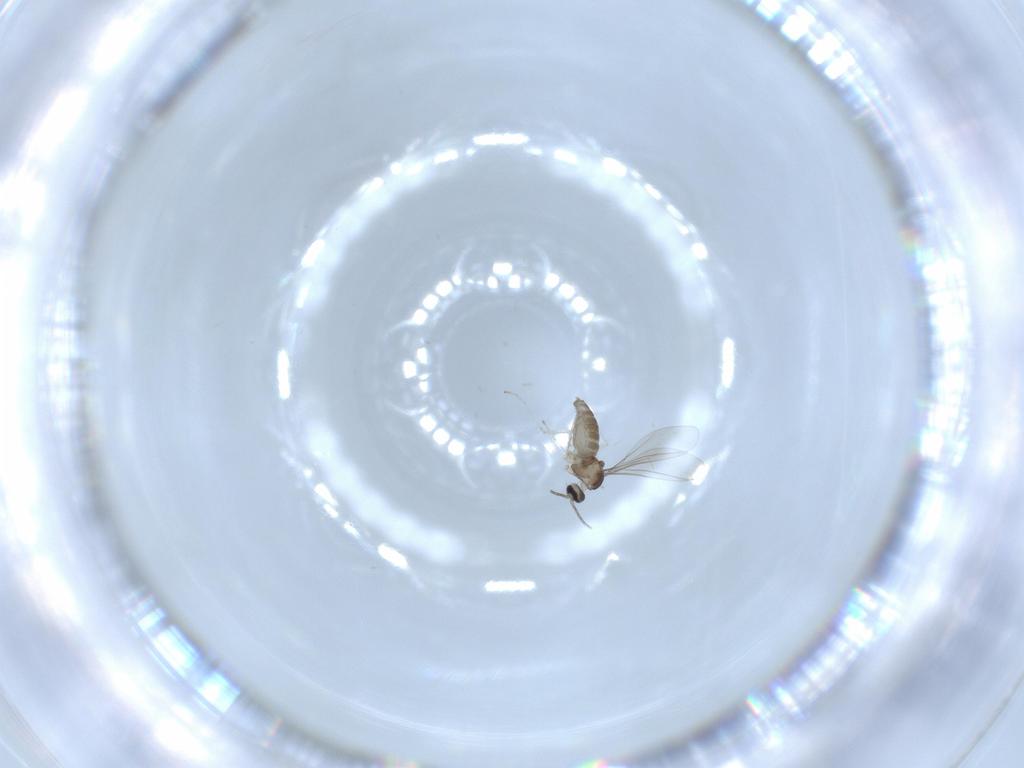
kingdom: Animalia
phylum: Arthropoda
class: Insecta
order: Diptera
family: Cecidomyiidae
